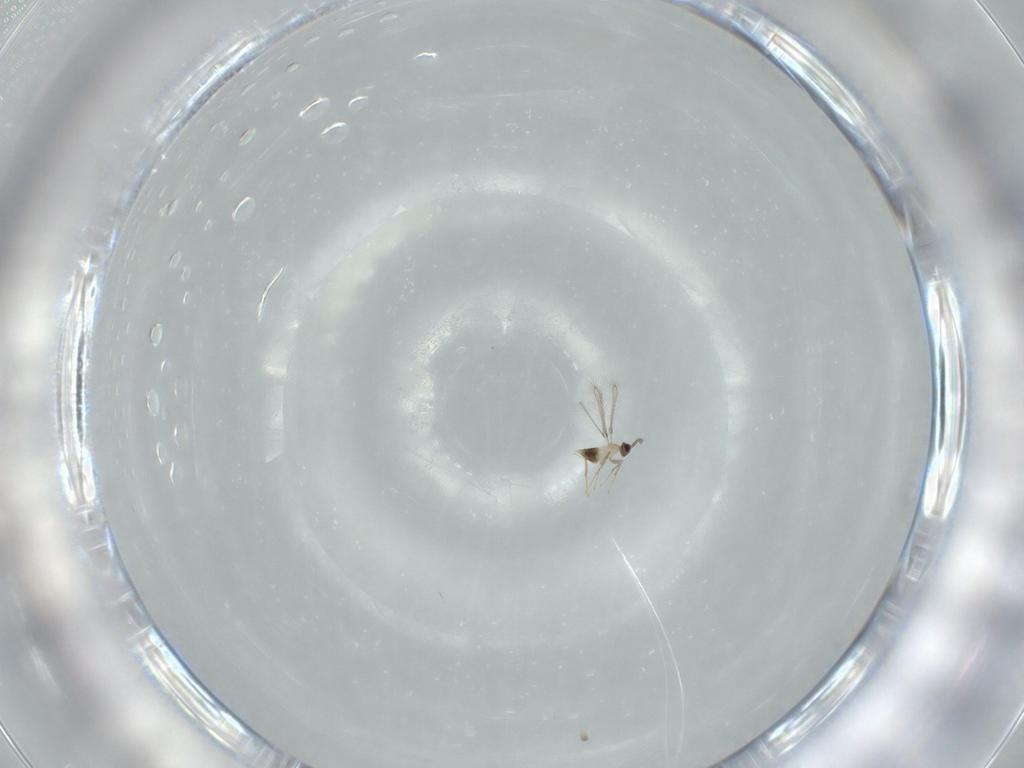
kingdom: Animalia
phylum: Arthropoda
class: Insecta
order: Hymenoptera
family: Mymaridae
